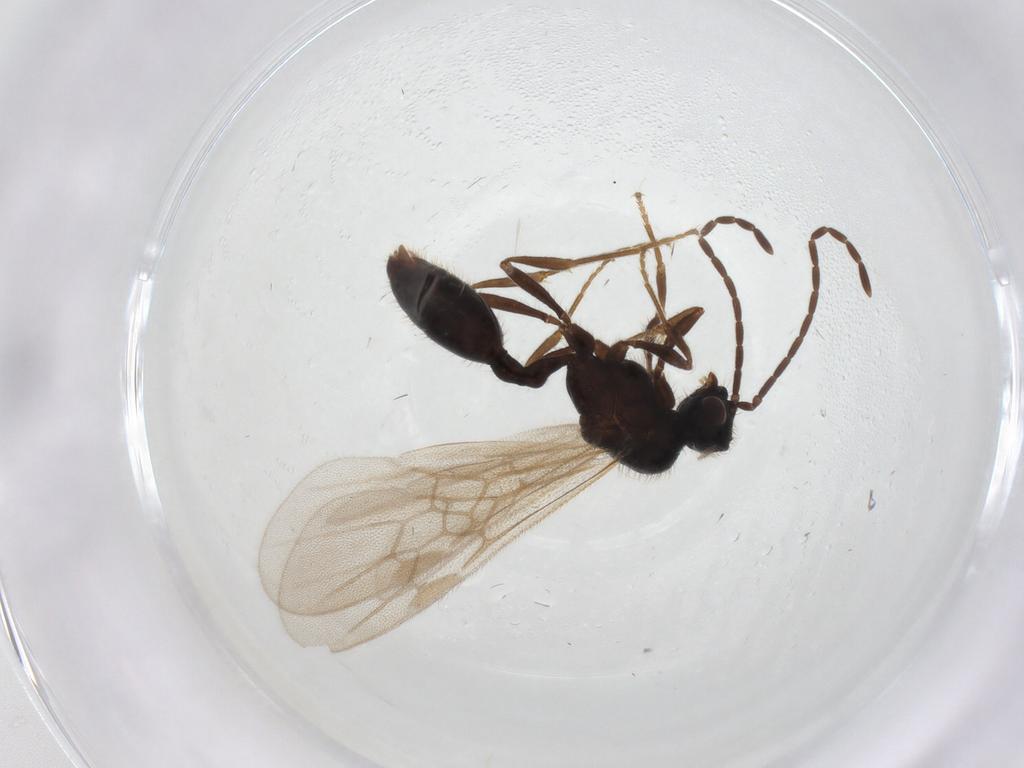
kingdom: Animalia
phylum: Arthropoda
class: Insecta
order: Hymenoptera
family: Formicidae
